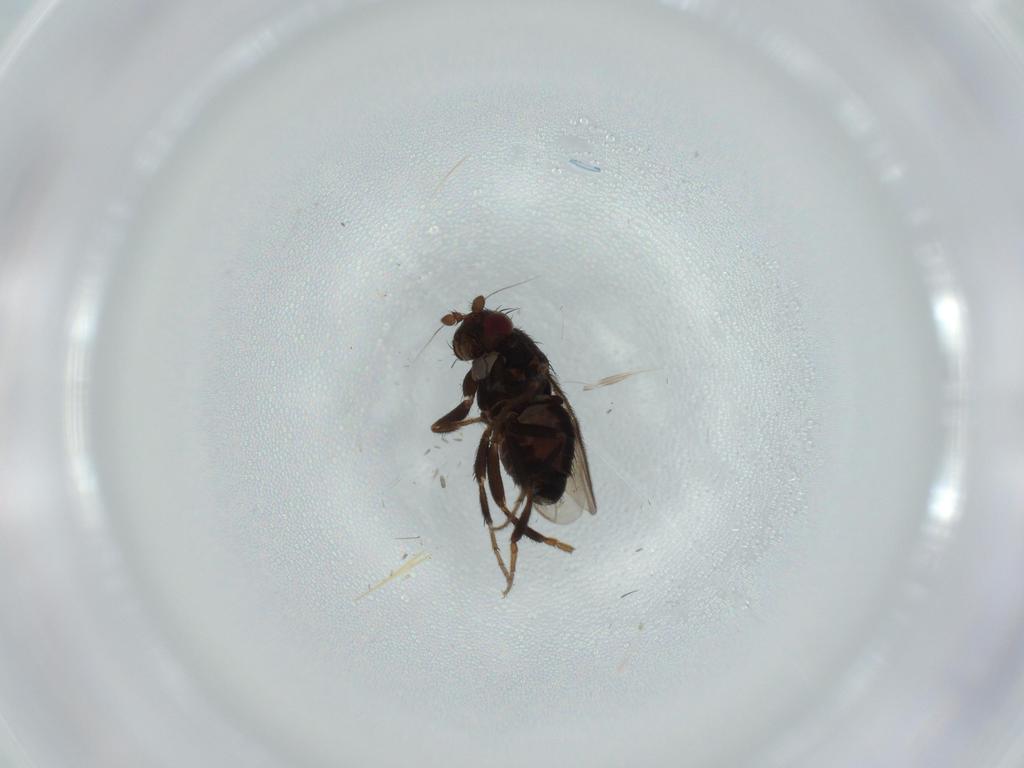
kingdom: Animalia
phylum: Arthropoda
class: Insecta
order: Diptera
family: Sphaeroceridae
